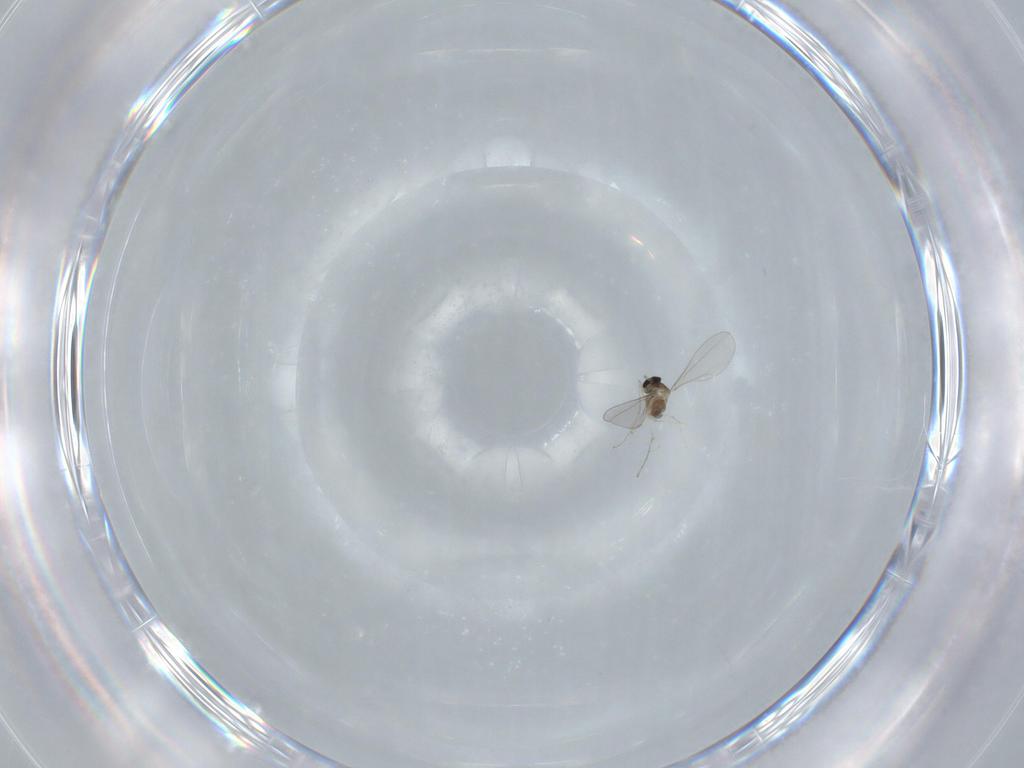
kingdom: Animalia
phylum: Arthropoda
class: Insecta
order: Diptera
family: Cecidomyiidae
